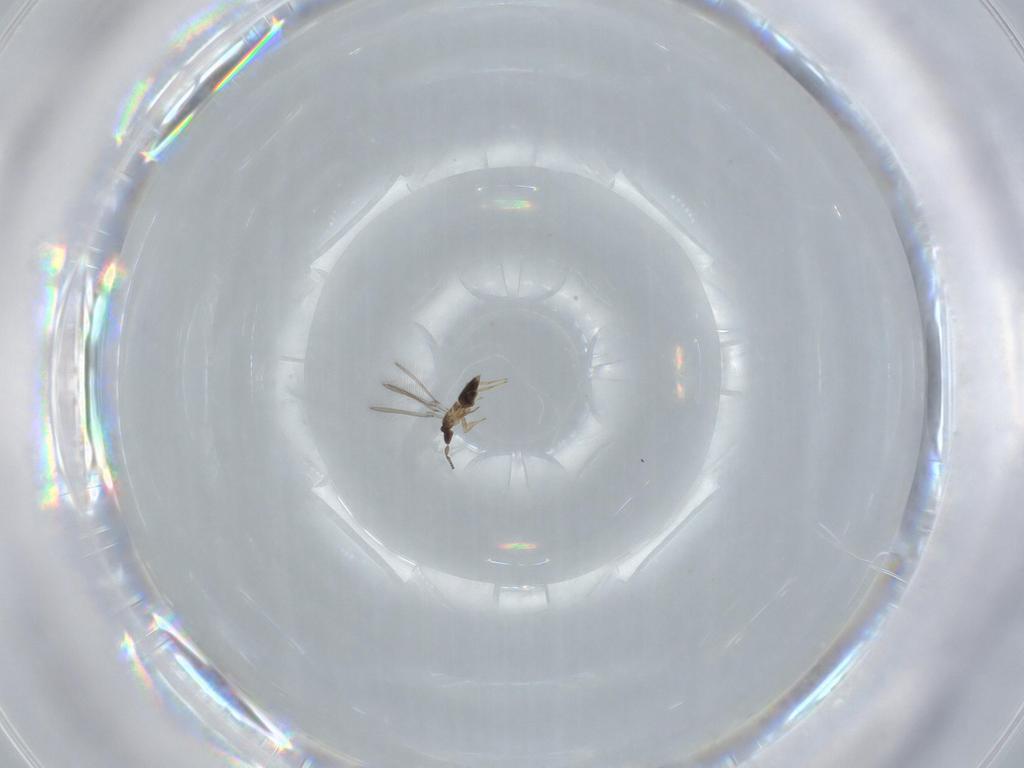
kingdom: Animalia
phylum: Arthropoda
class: Insecta
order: Hymenoptera
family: Mymaridae
